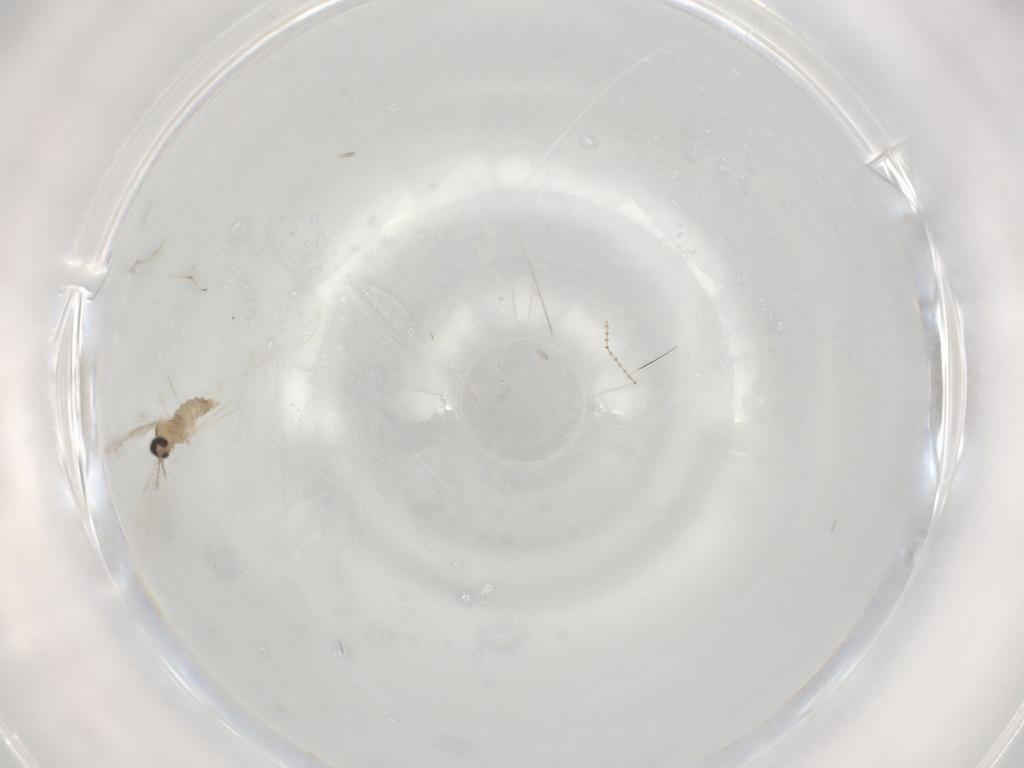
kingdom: Animalia
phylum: Arthropoda
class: Insecta
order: Diptera
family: Cecidomyiidae
